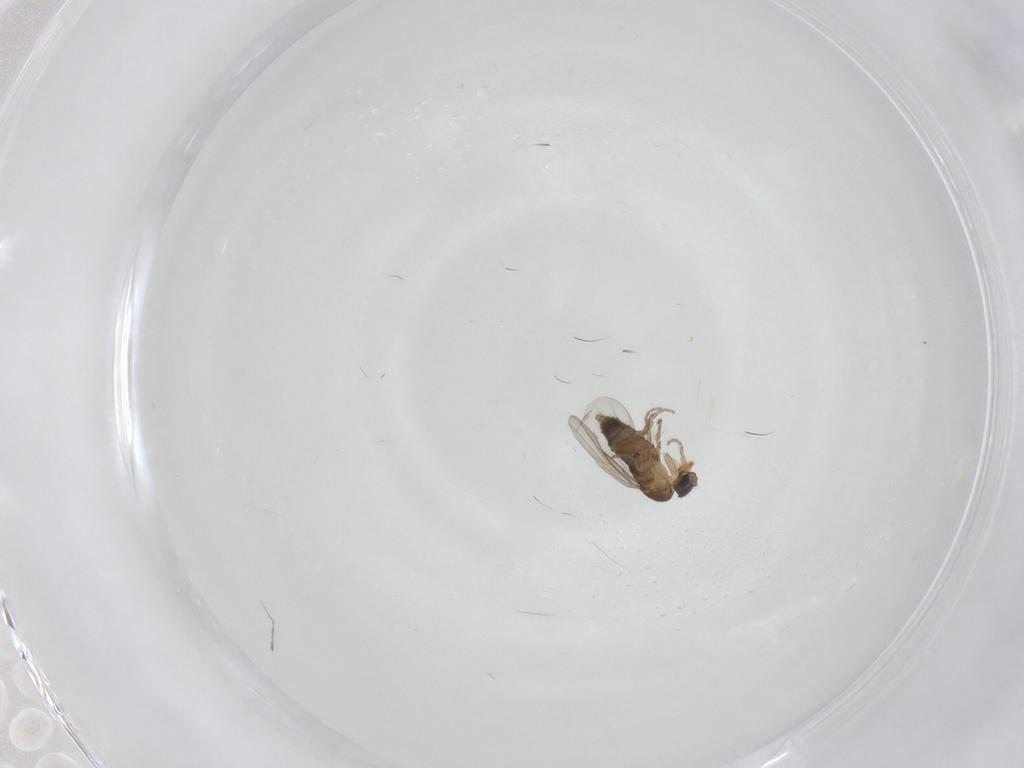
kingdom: Animalia
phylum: Arthropoda
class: Insecta
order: Diptera
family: Phoridae
